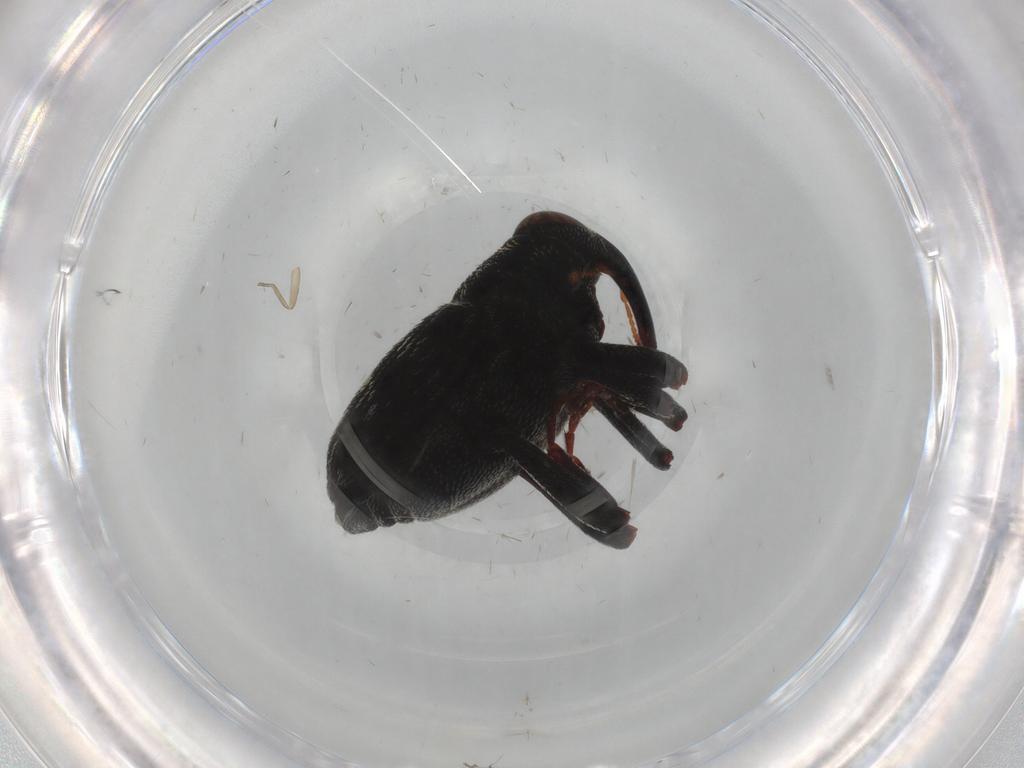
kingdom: Animalia
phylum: Arthropoda
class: Insecta
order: Coleoptera
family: Curculionidae
